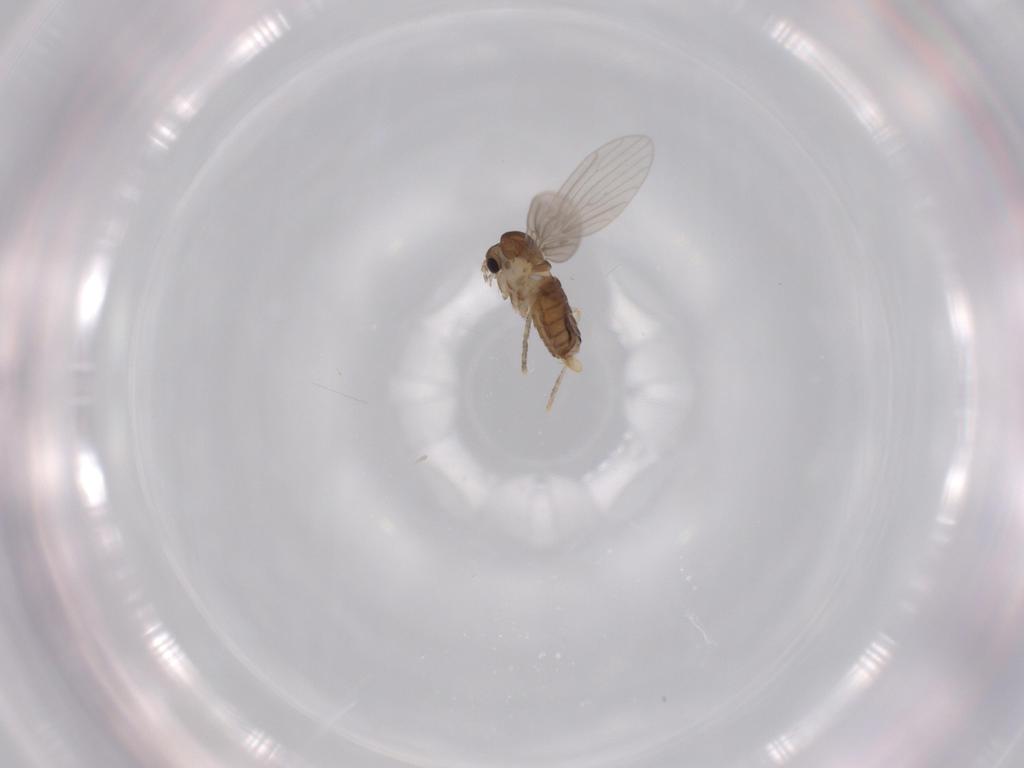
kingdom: Animalia
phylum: Arthropoda
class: Insecta
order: Diptera
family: Psychodidae
